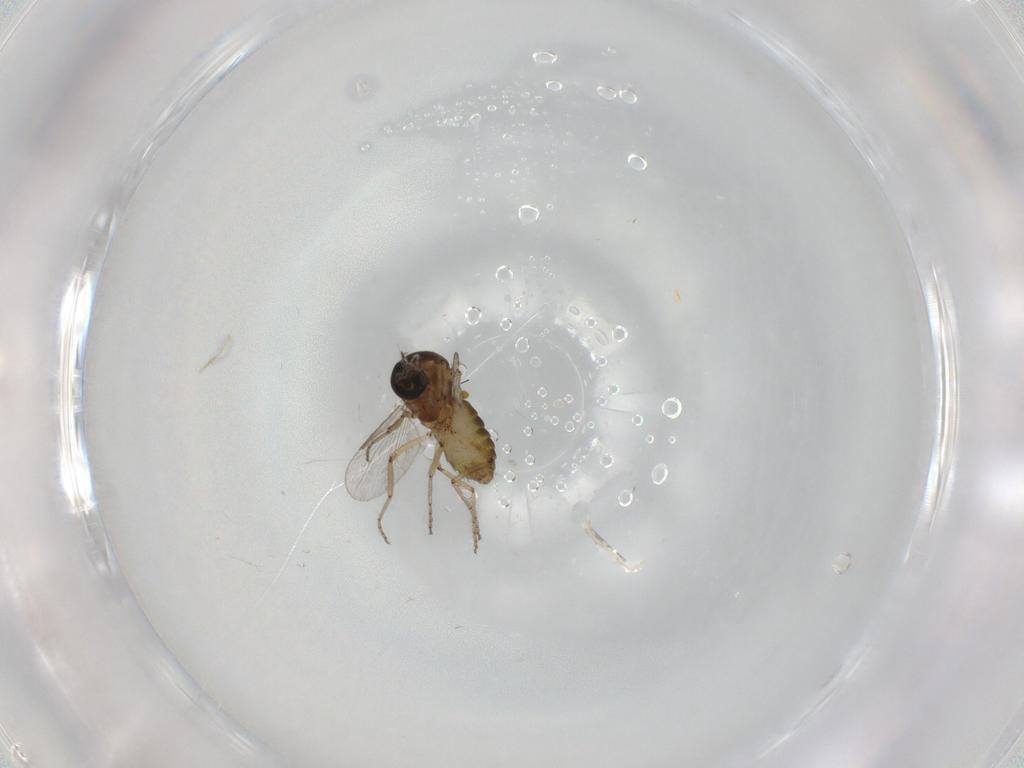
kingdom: Animalia
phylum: Arthropoda
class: Insecta
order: Diptera
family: Ceratopogonidae
